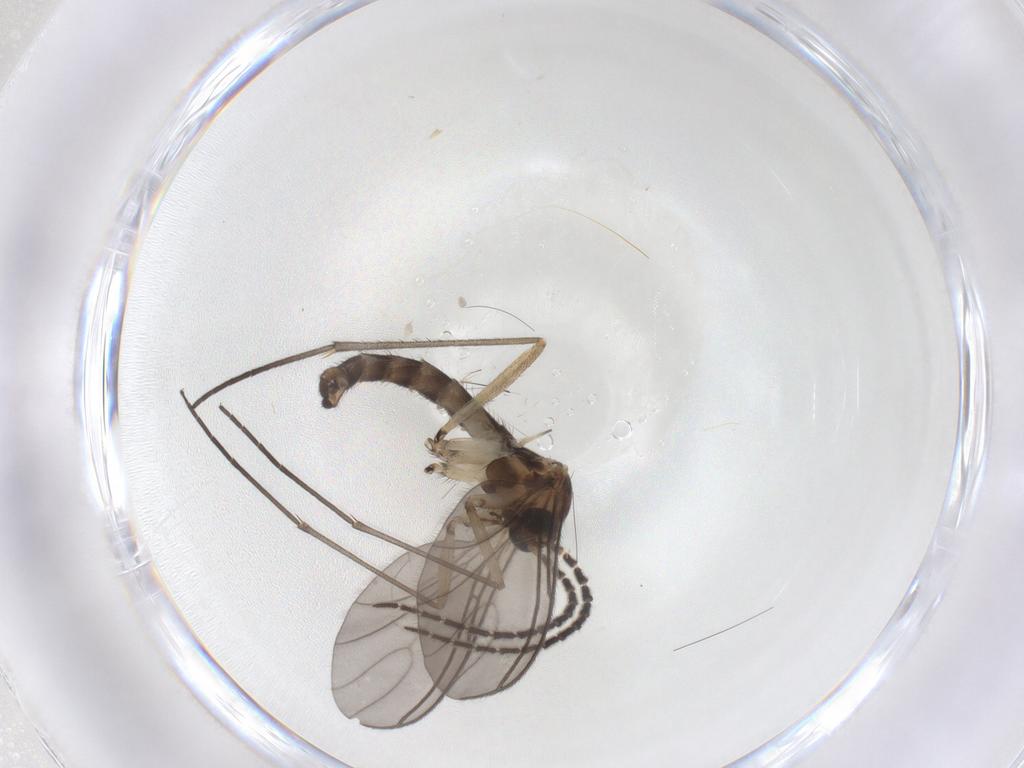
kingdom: Animalia
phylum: Arthropoda
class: Insecta
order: Diptera
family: Sciaridae
